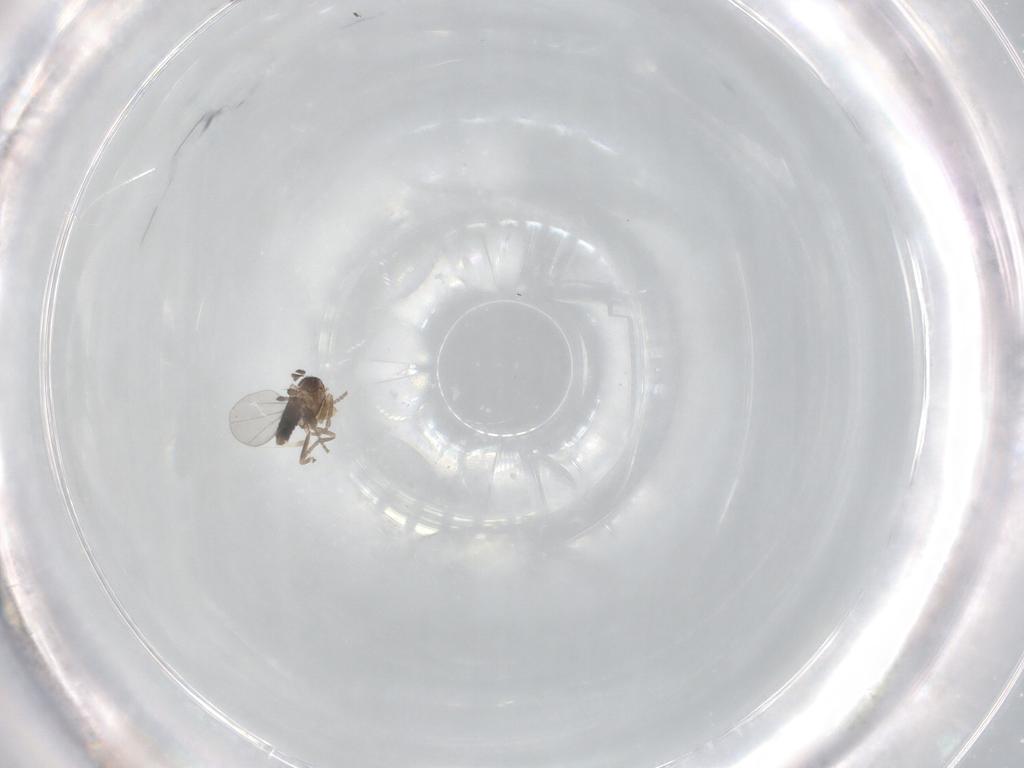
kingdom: Animalia
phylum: Arthropoda
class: Insecta
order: Diptera
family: Phoridae
